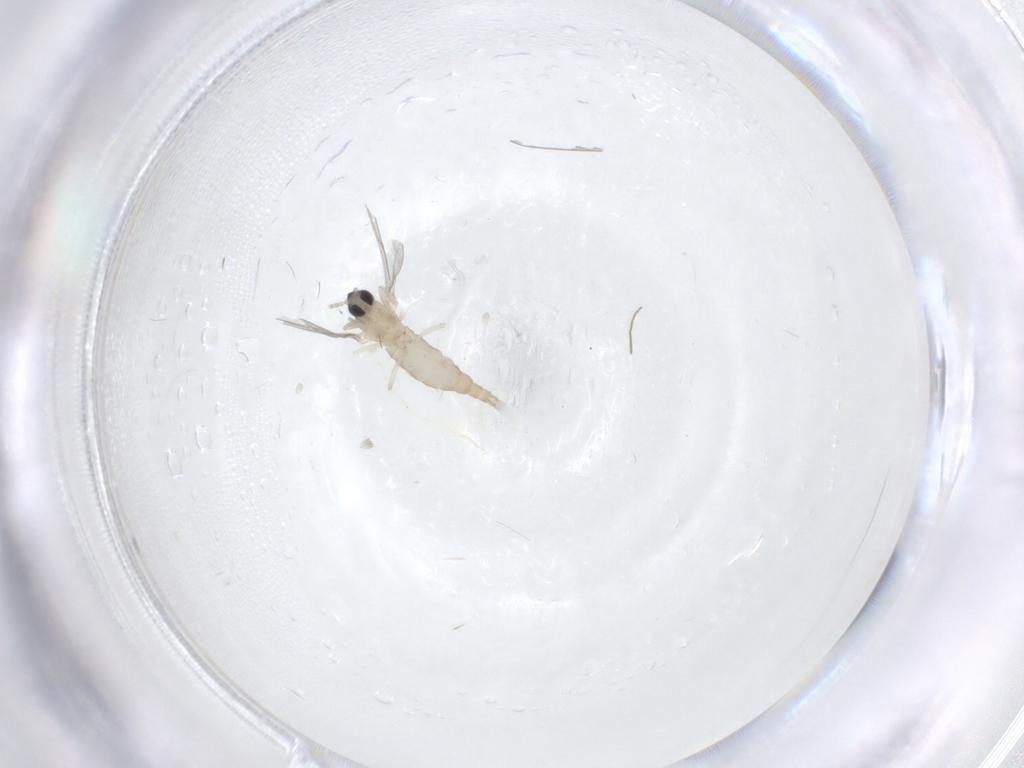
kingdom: Animalia
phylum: Arthropoda
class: Insecta
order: Diptera
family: Cecidomyiidae
